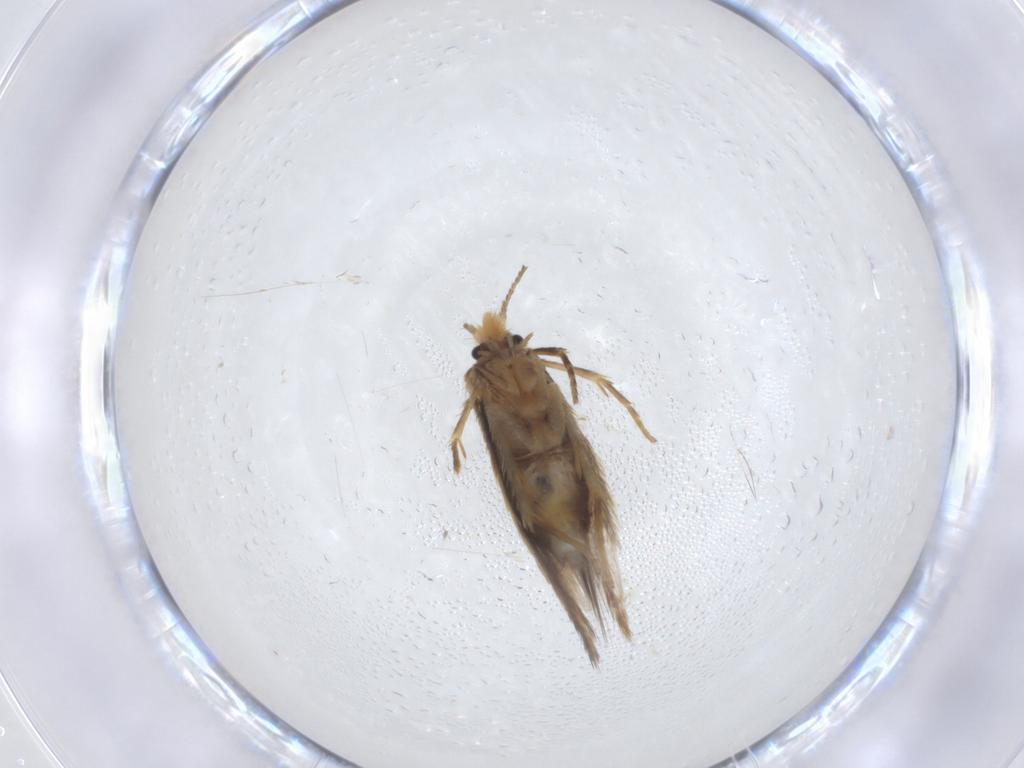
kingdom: Animalia
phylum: Arthropoda
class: Insecta
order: Lepidoptera
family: Nepticulidae
